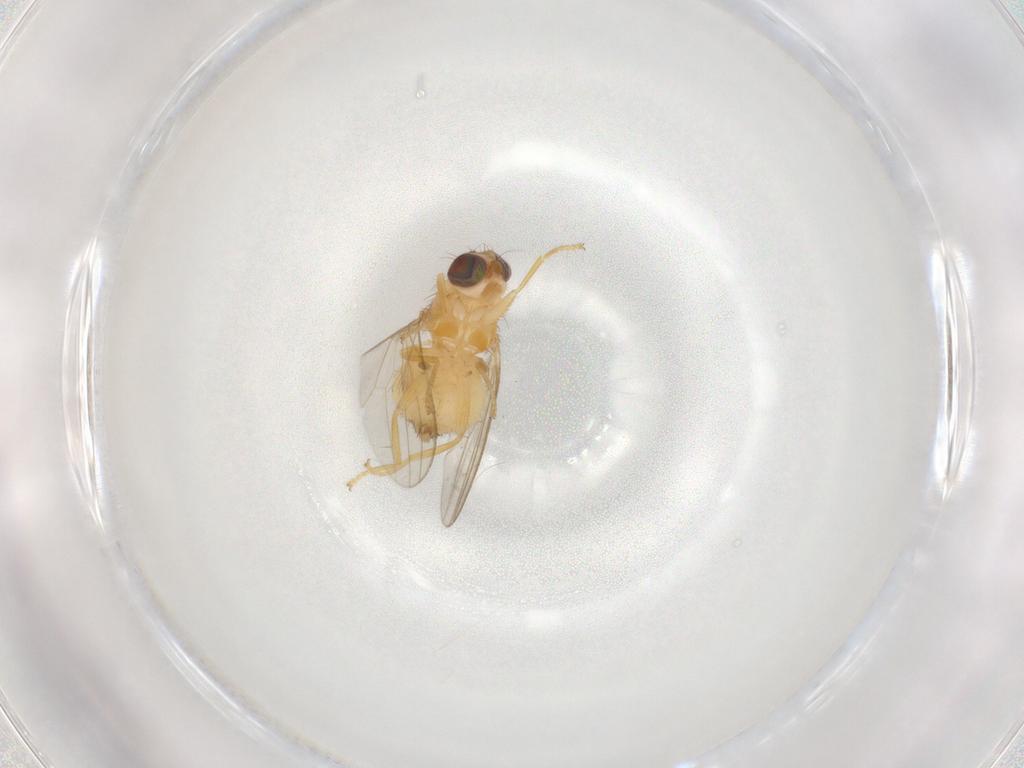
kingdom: Animalia
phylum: Arthropoda
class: Insecta
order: Diptera
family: Chyromyidae
